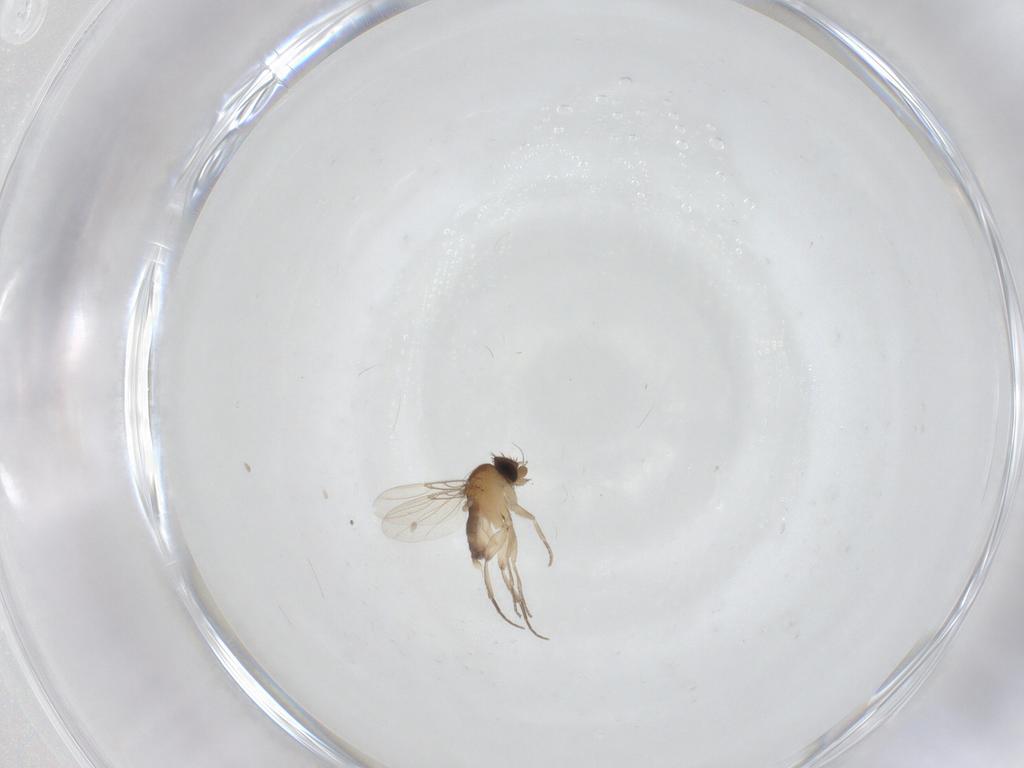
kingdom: Animalia
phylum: Arthropoda
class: Insecta
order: Diptera
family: Phoridae
